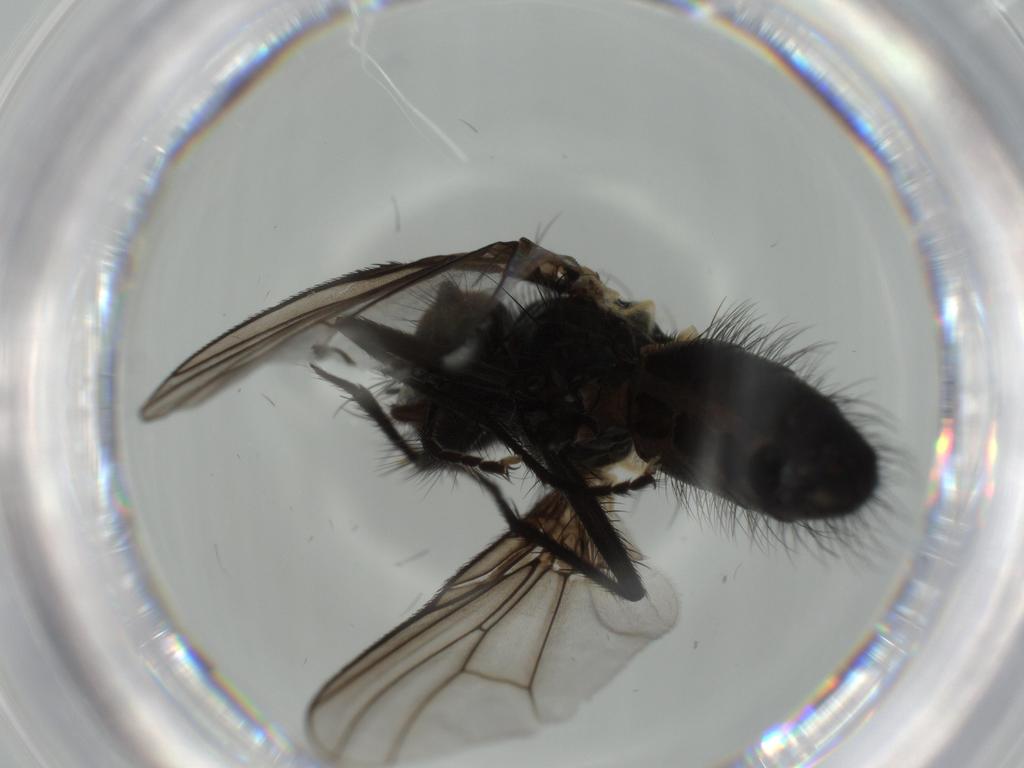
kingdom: Animalia
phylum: Arthropoda
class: Insecta
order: Diptera
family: Muscidae
